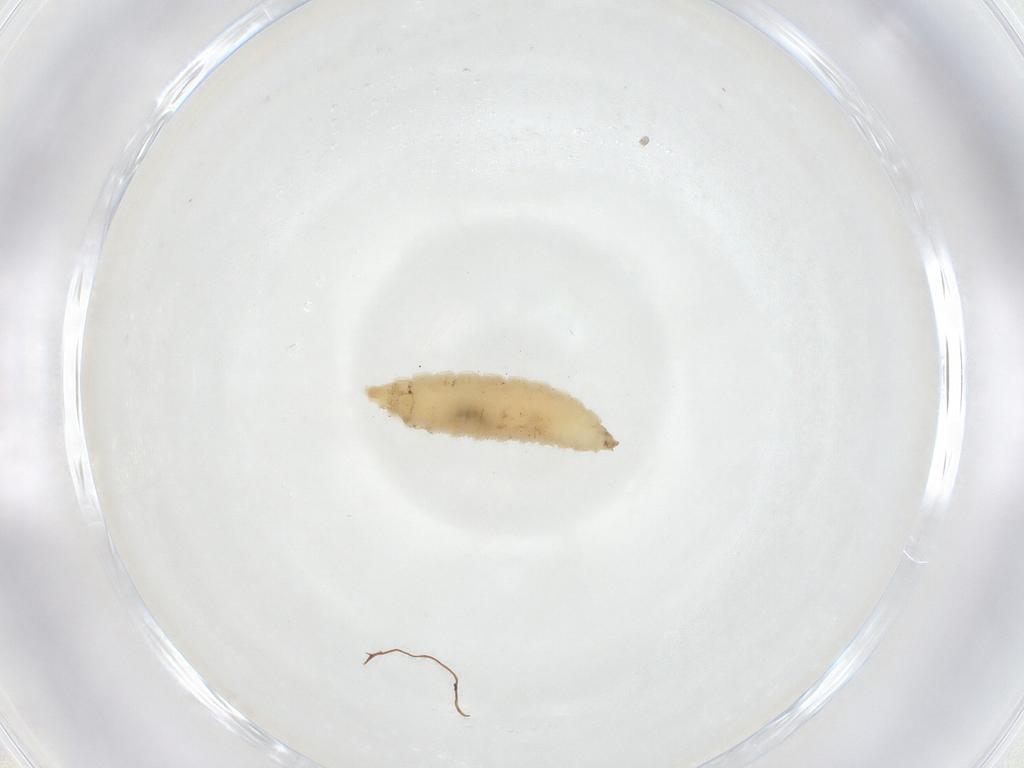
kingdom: Animalia
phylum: Arthropoda
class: Insecta
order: Diptera
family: Cecidomyiidae
